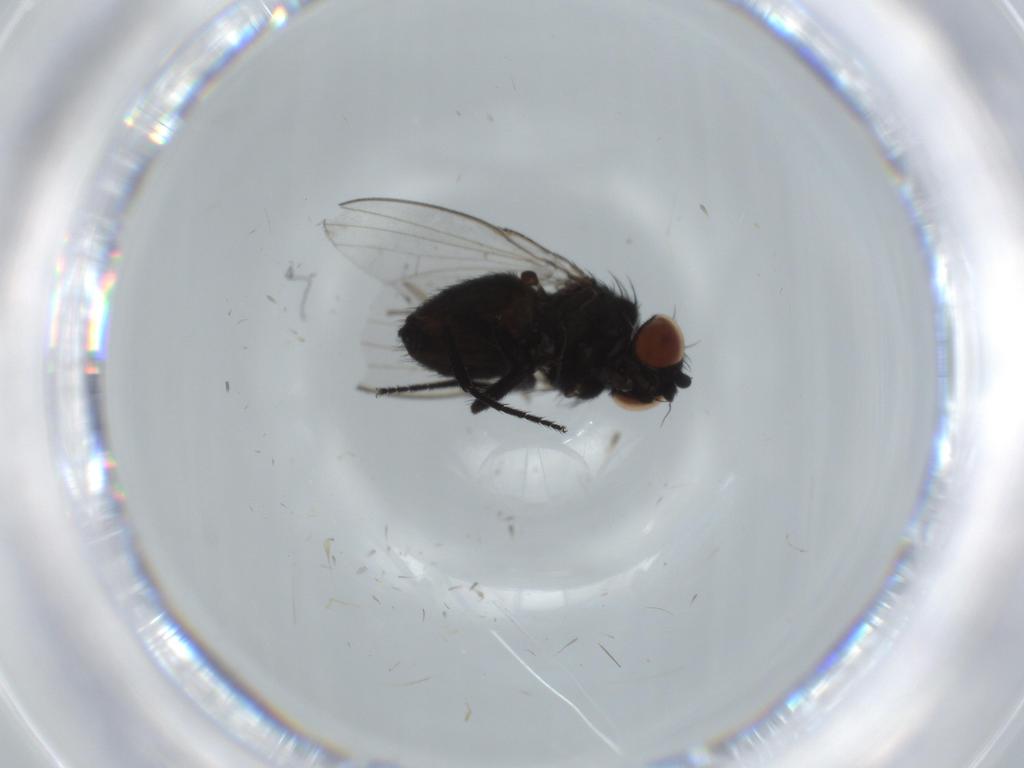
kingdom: Animalia
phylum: Arthropoda
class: Insecta
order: Diptera
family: Milichiidae
